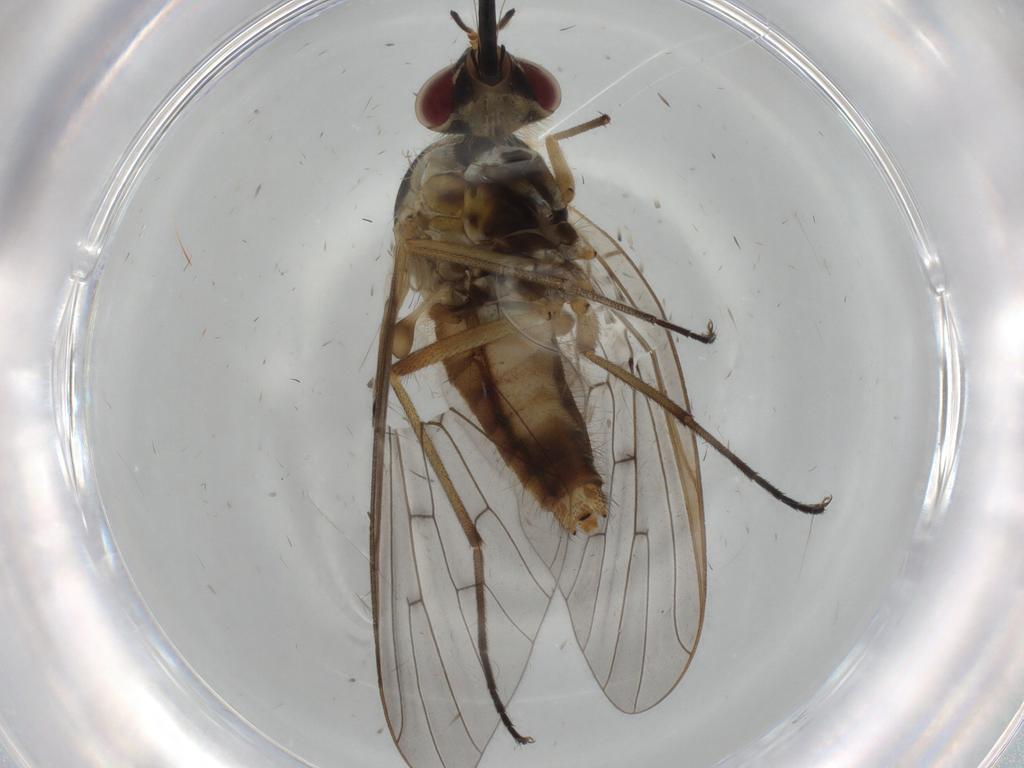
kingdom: Animalia
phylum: Arthropoda
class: Insecta
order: Diptera
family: Bombyliidae
